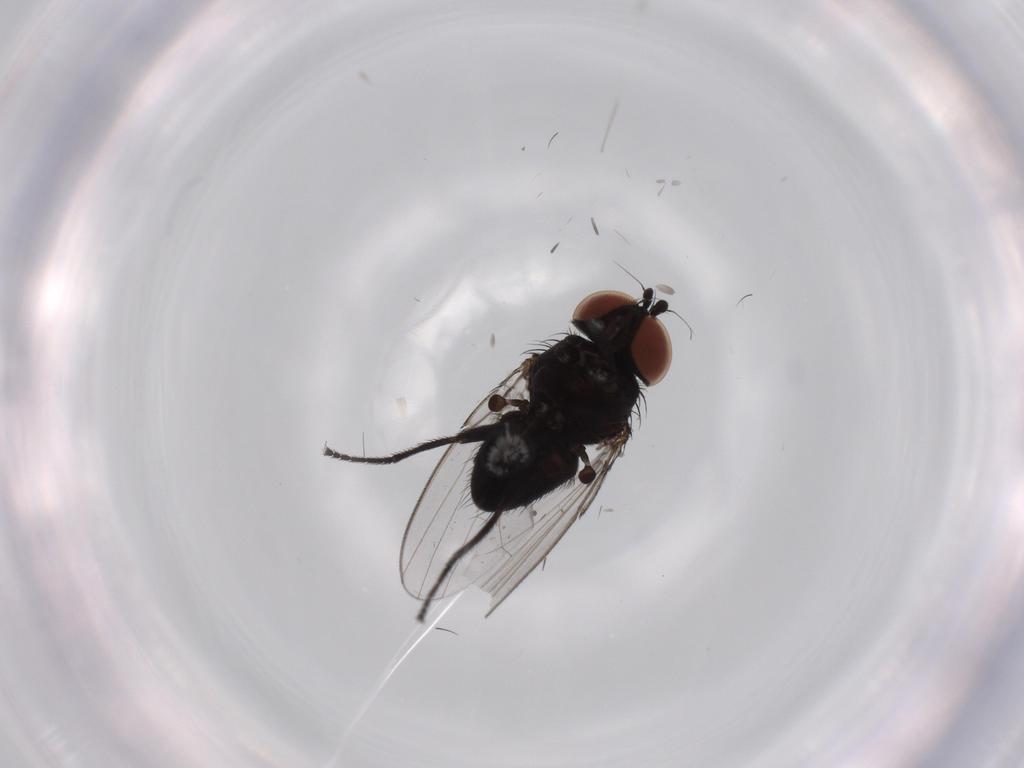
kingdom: Animalia
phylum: Arthropoda
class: Insecta
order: Diptera
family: Milichiidae
